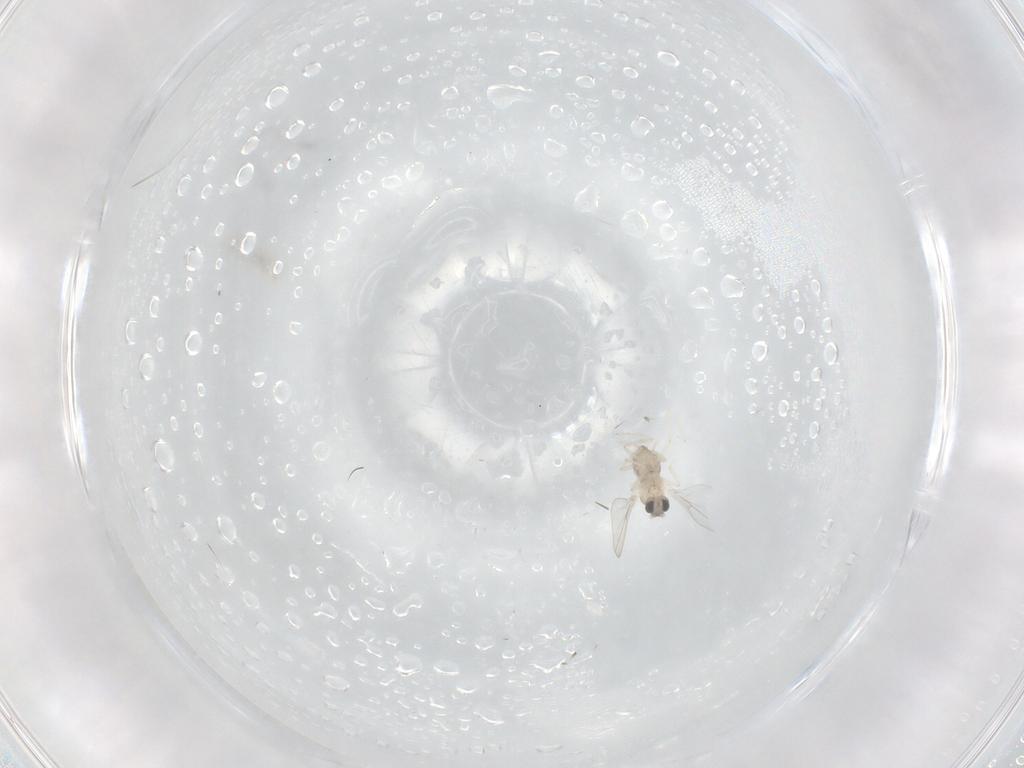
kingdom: Animalia
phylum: Arthropoda
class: Insecta
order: Diptera
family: Cecidomyiidae
